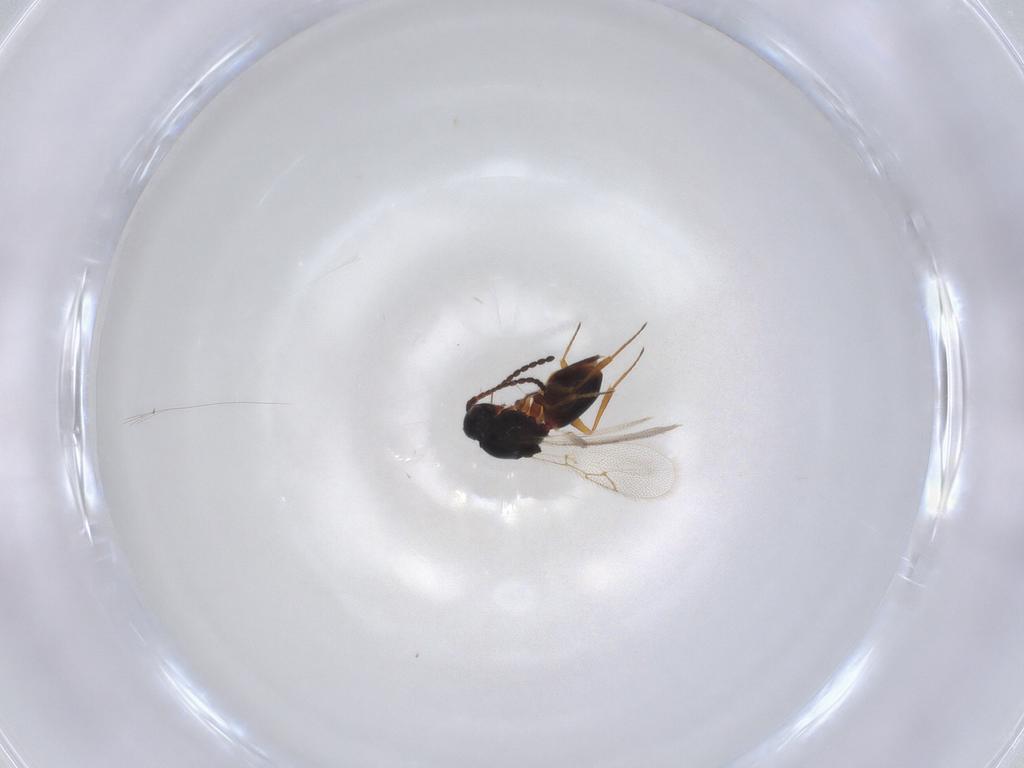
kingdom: Animalia
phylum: Arthropoda
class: Insecta
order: Hymenoptera
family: Figitidae
